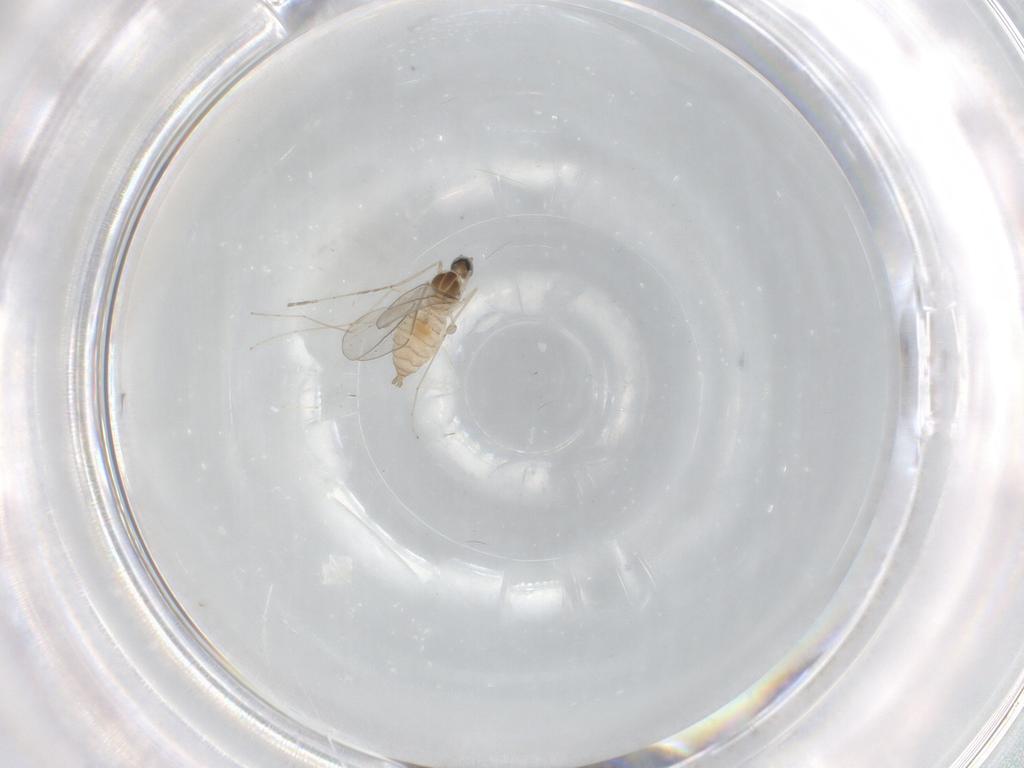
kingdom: Animalia
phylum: Arthropoda
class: Insecta
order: Diptera
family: Cecidomyiidae
